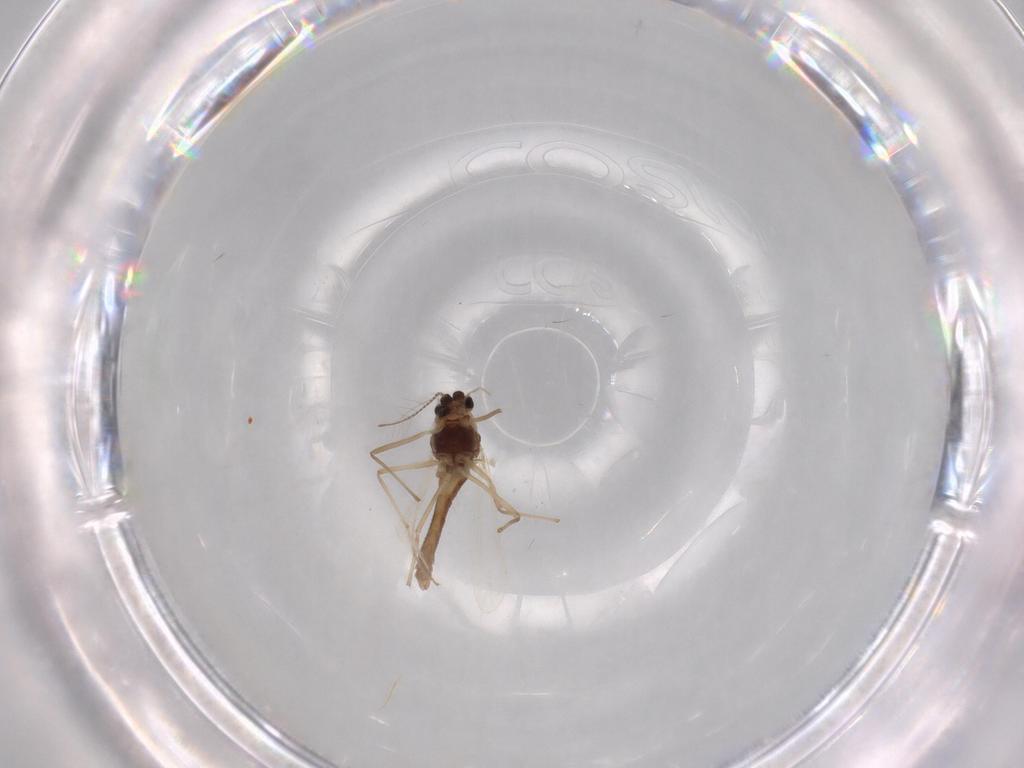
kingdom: Animalia
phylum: Arthropoda
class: Insecta
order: Diptera
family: Chironomidae
